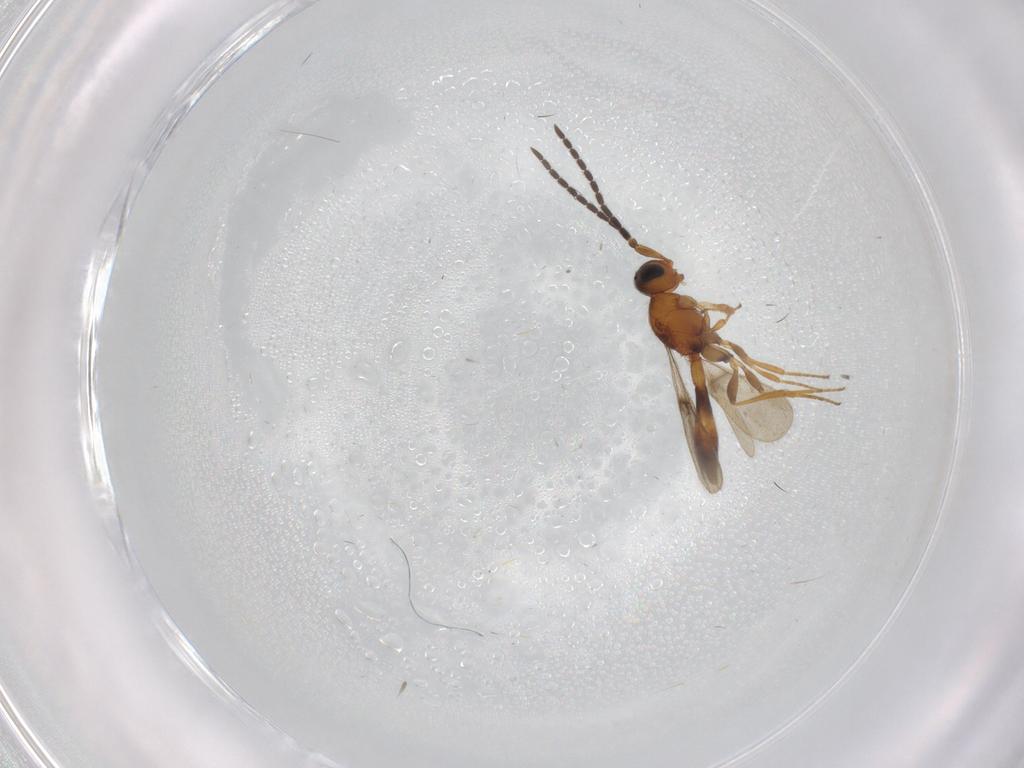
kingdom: Animalia
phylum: Arthropoda
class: Insecta
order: Hymenoptera
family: Scelionidae
